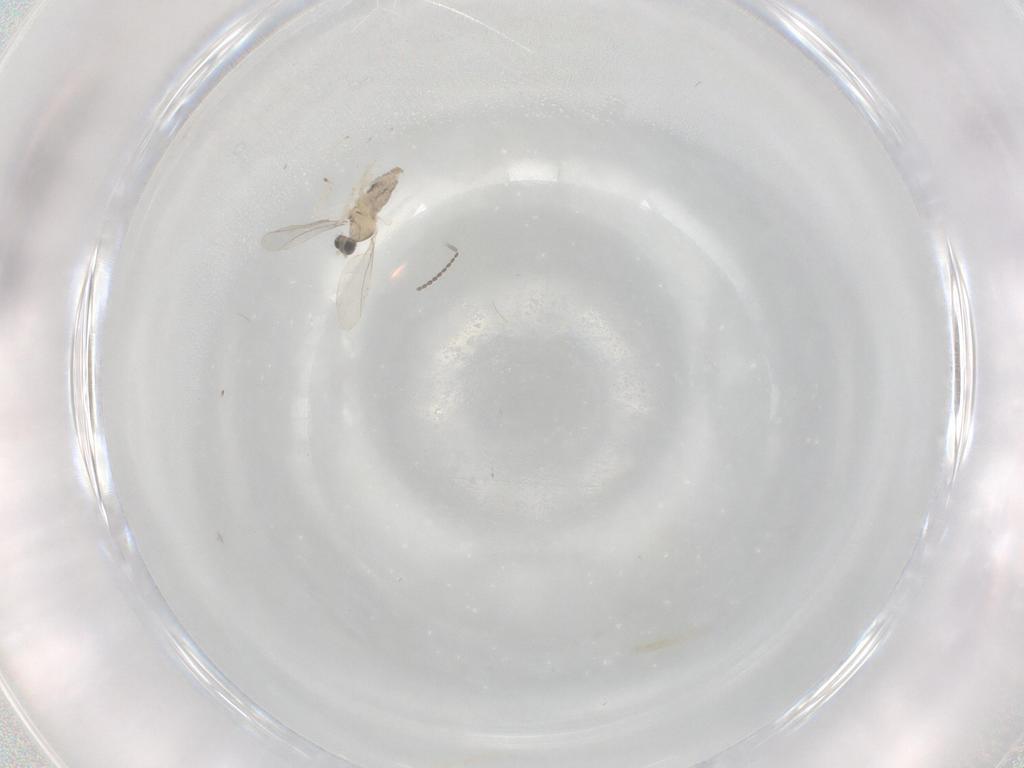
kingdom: Animalia
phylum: Arthropoda
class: Insecta
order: Diptera
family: Cecidomyiidae
